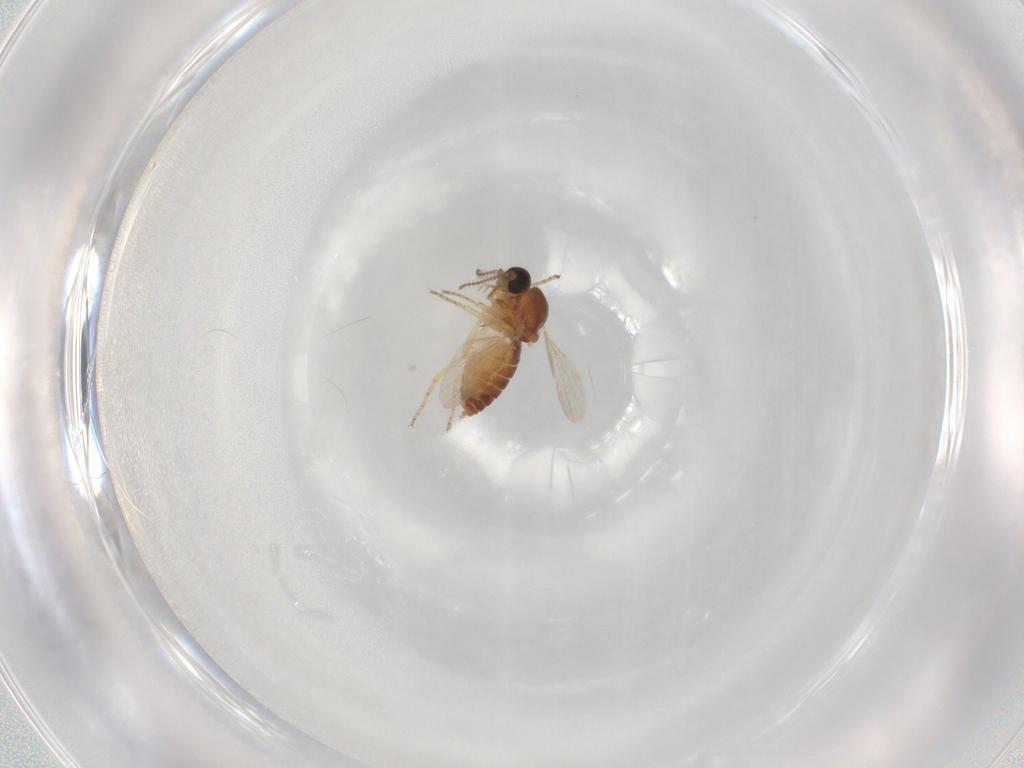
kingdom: Animalia
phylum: Arthropoda
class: Insecta
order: Diptera
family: Ceratopogonidae
